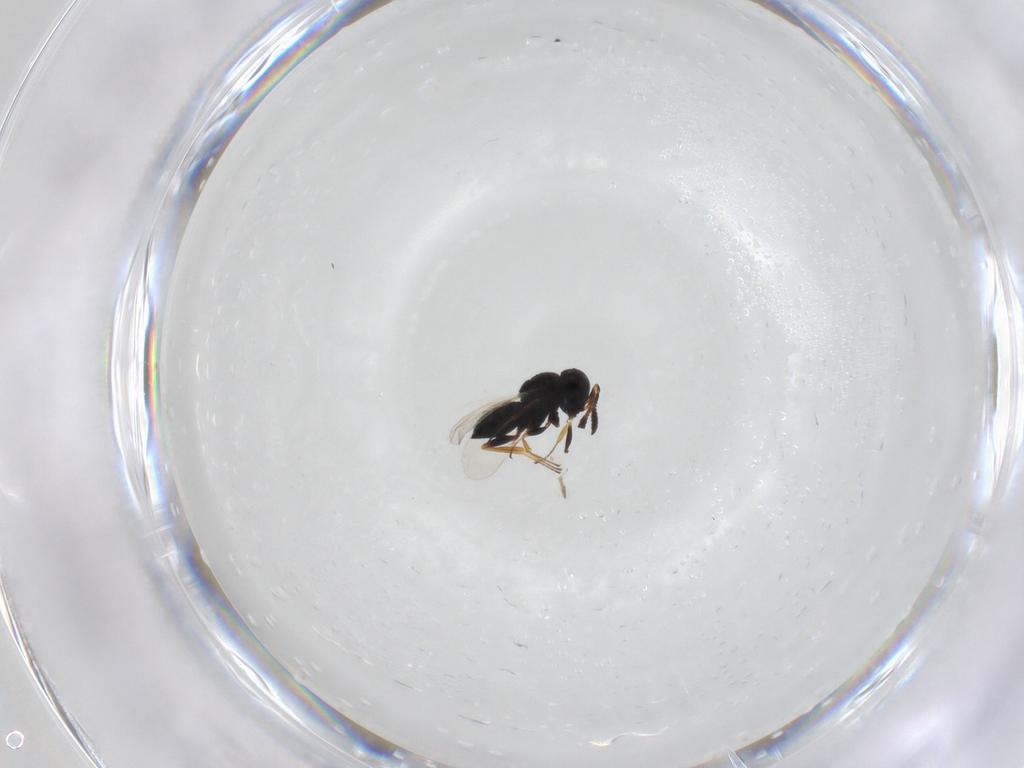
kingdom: Animalia
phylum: Arthropoda
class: Insecta
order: Hymenoptera
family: Scelionidae
